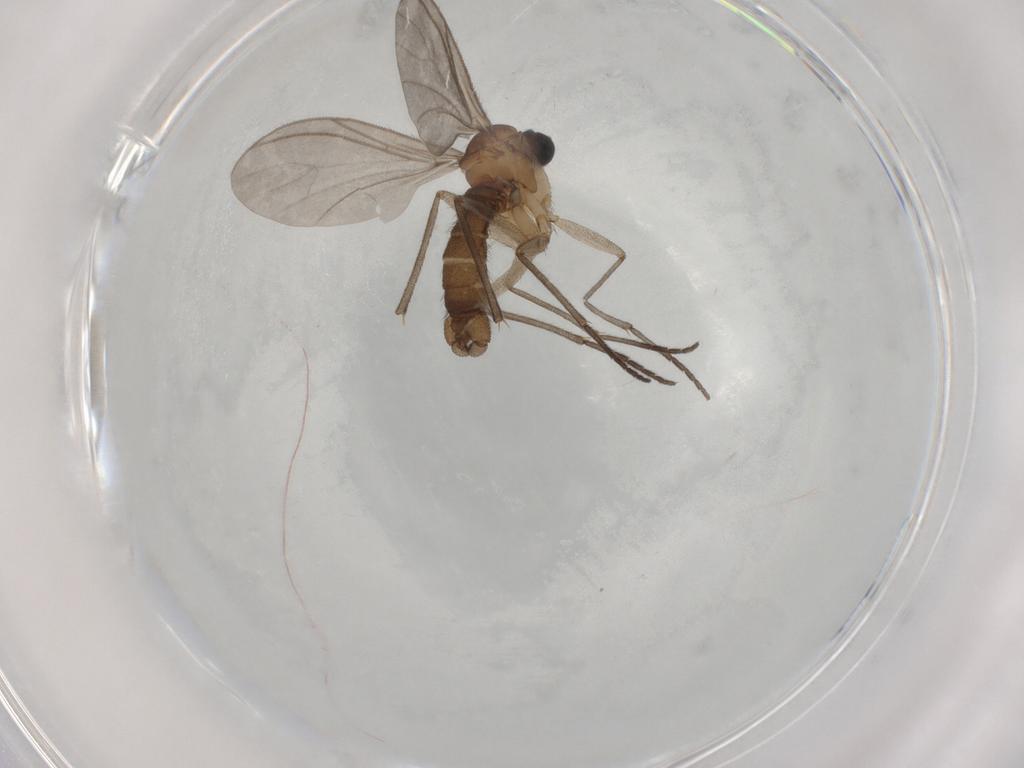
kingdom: Animalia
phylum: Arthropoda
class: Insecta
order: Diptera
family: Sciaridae
